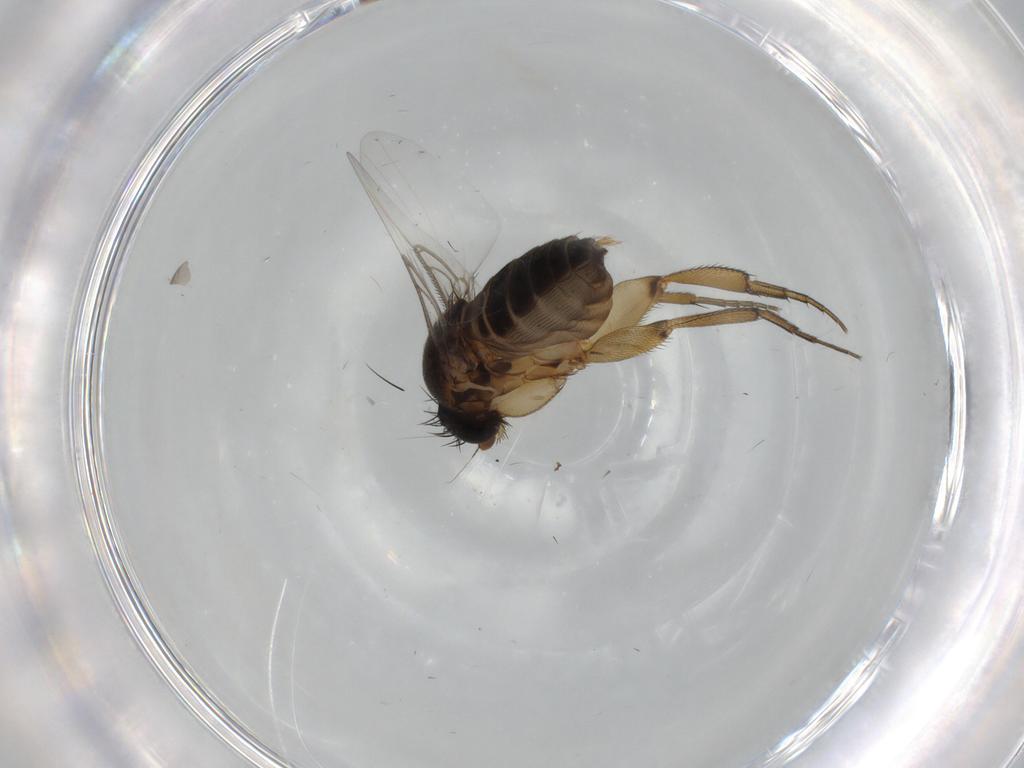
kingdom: Animalia
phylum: Arthropoda
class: Insecta
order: Diptera
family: Phoridae
